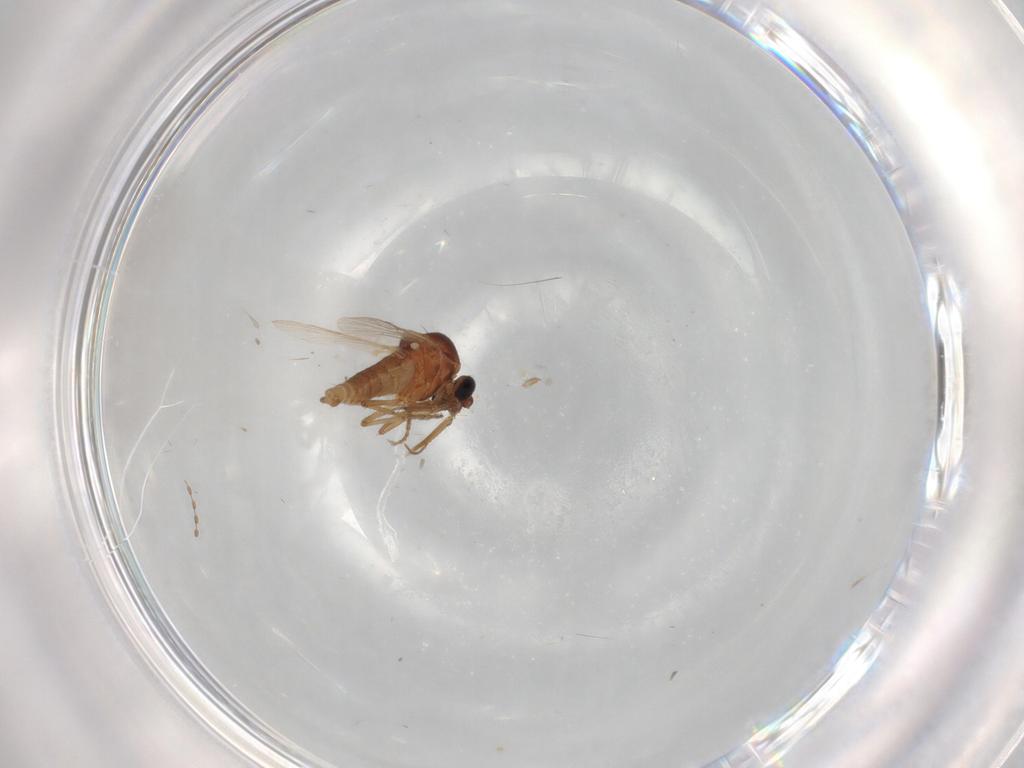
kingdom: Animalia
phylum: Arthropoda
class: Insecta
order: Diptera
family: Ceratopogonidae
